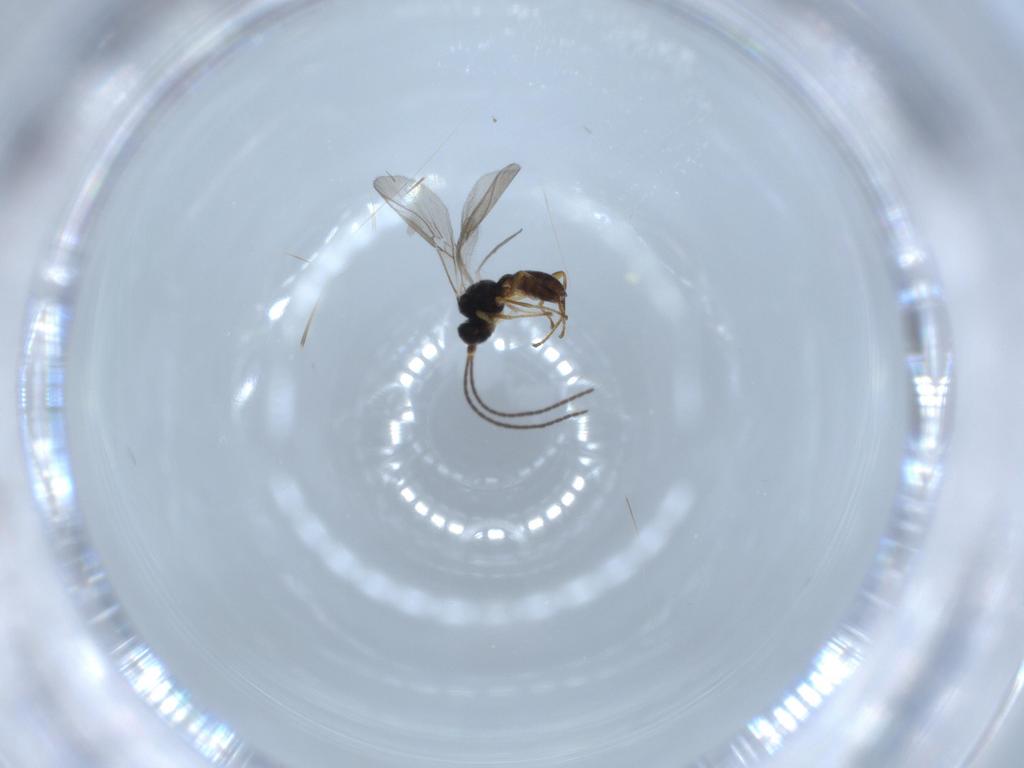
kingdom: Animalia
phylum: Arthropoda
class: Insecta
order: Hymenoptera
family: Braconidae
